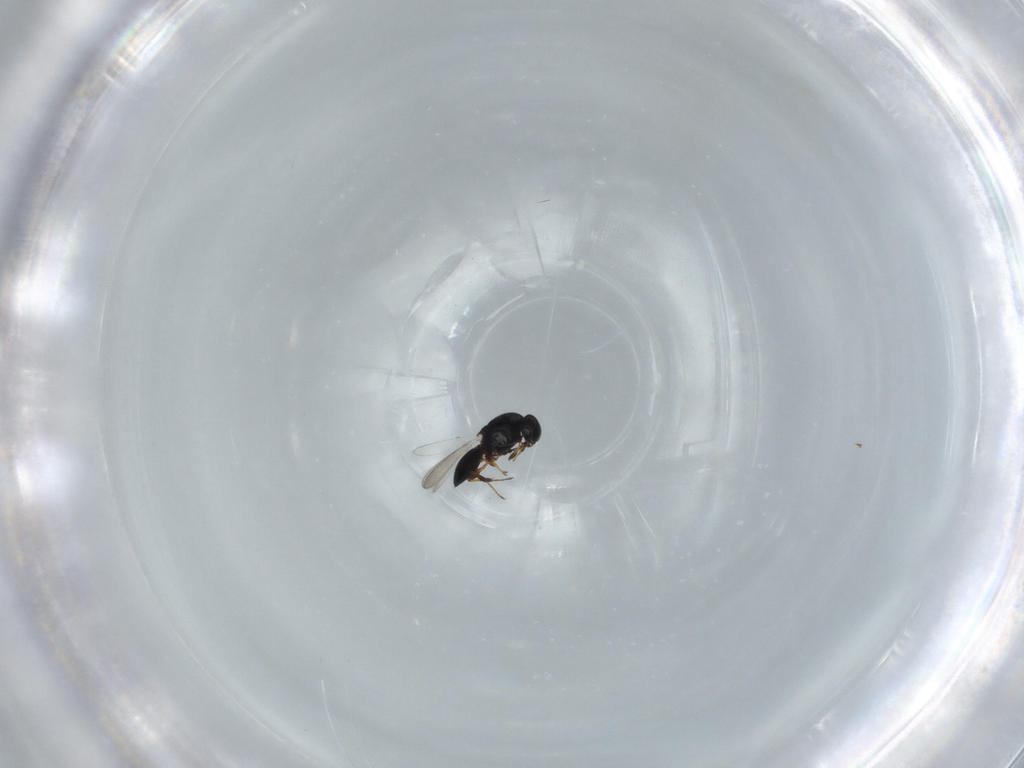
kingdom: Animalia
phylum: Arthropoda
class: Insecta
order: Hymenoptera
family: Platygastridae
